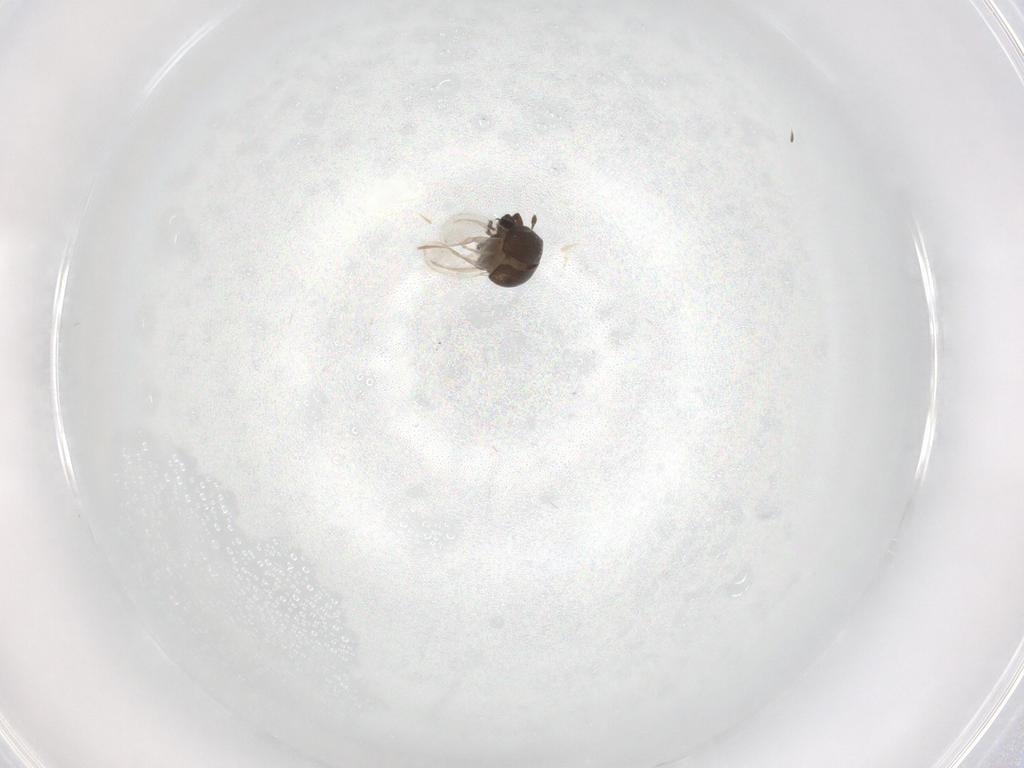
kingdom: Animalia
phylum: Arthropoda
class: Insecta
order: Coleoptera
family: Curculionidae
